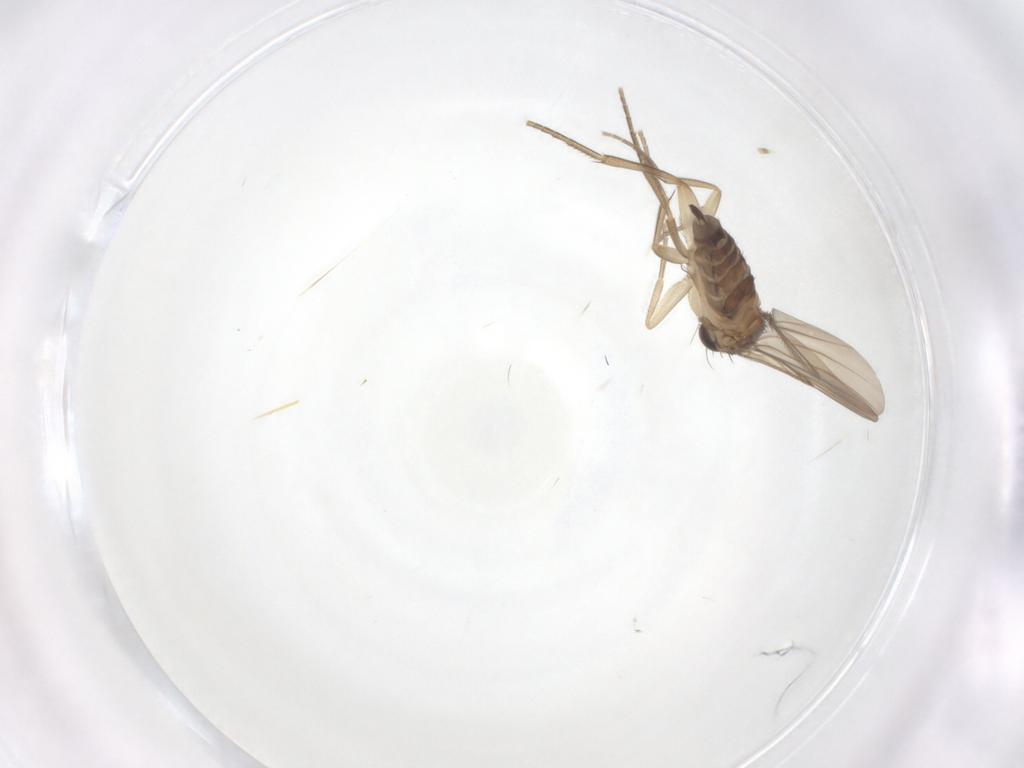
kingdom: Animalia
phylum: Arthropoda
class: Insecta
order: Diptera
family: Phoridae
